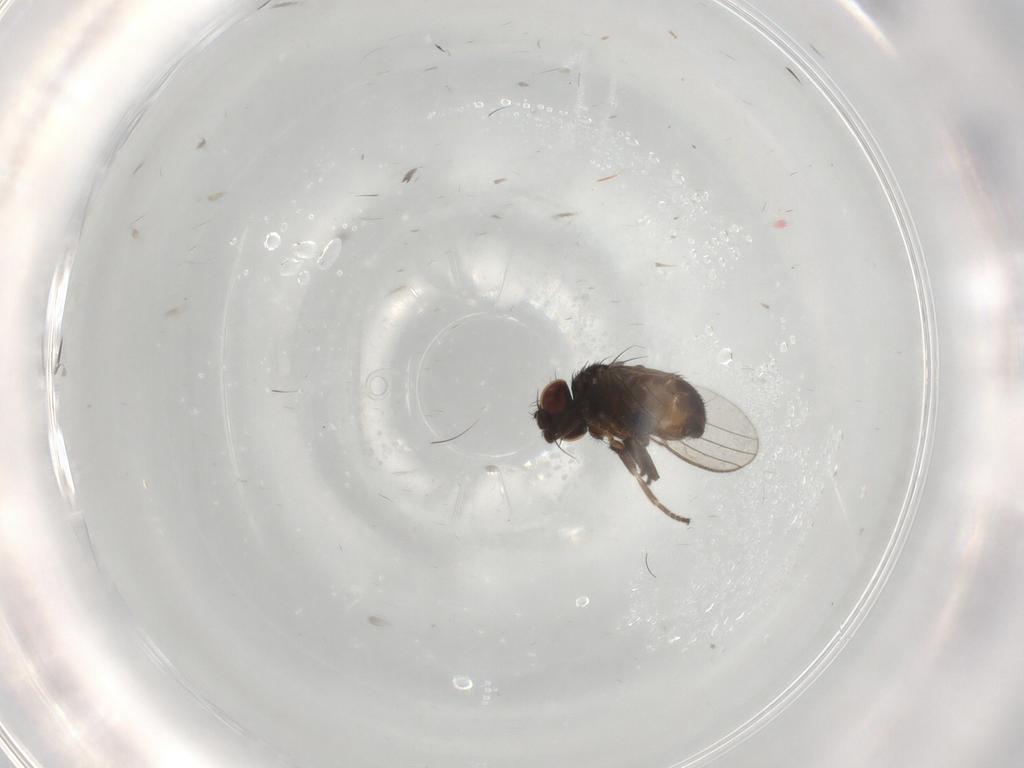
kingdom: Animalia
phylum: Arthropoda
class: Insecta
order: Diptera
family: Milichiidae
